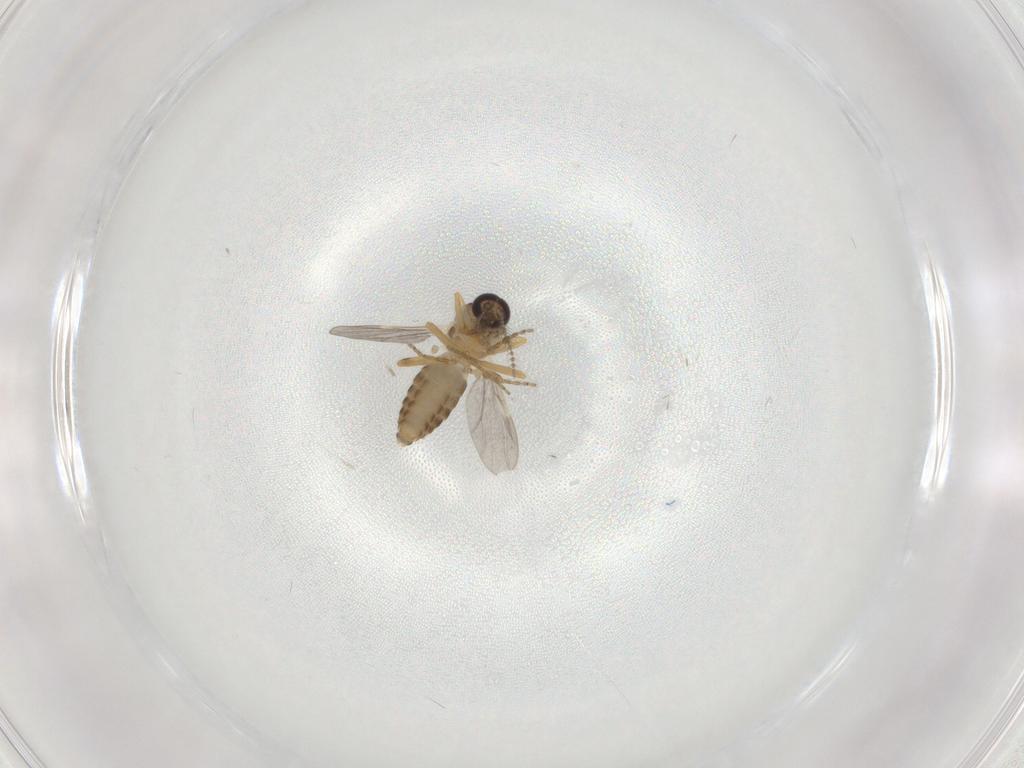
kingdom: Animalia
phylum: Arthropoda
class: Insecta
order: Diptera
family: Ceratopogonidae
